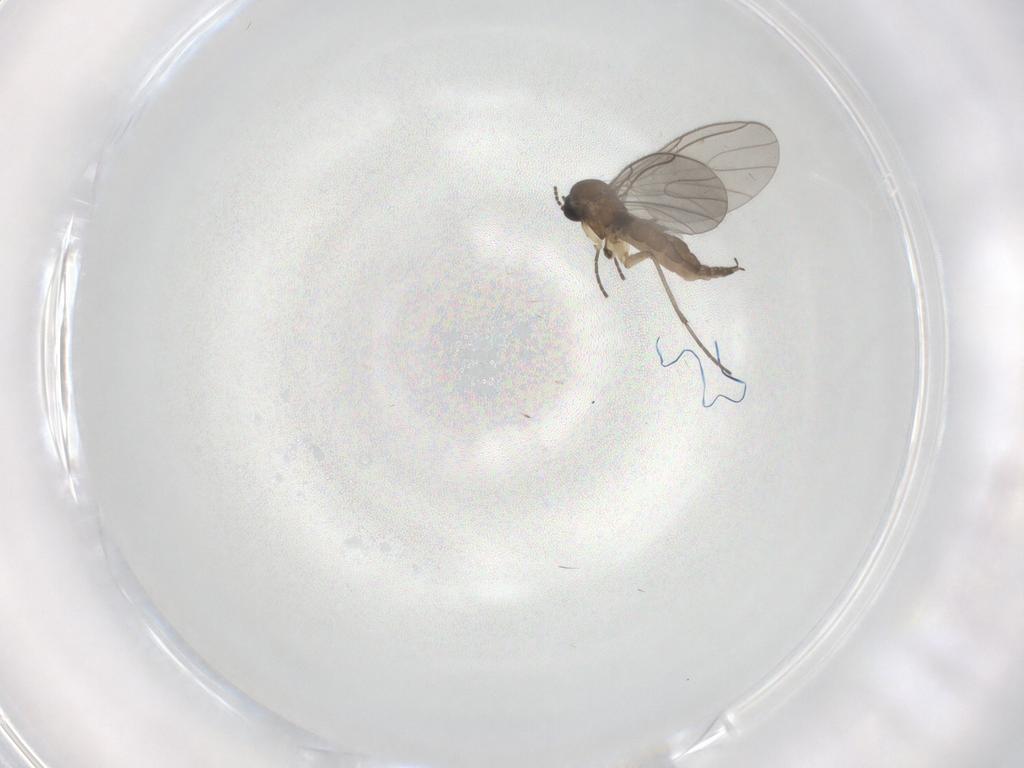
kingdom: Animalia
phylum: Arthropoda
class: Insecta
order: Diptera
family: Sciaridae
